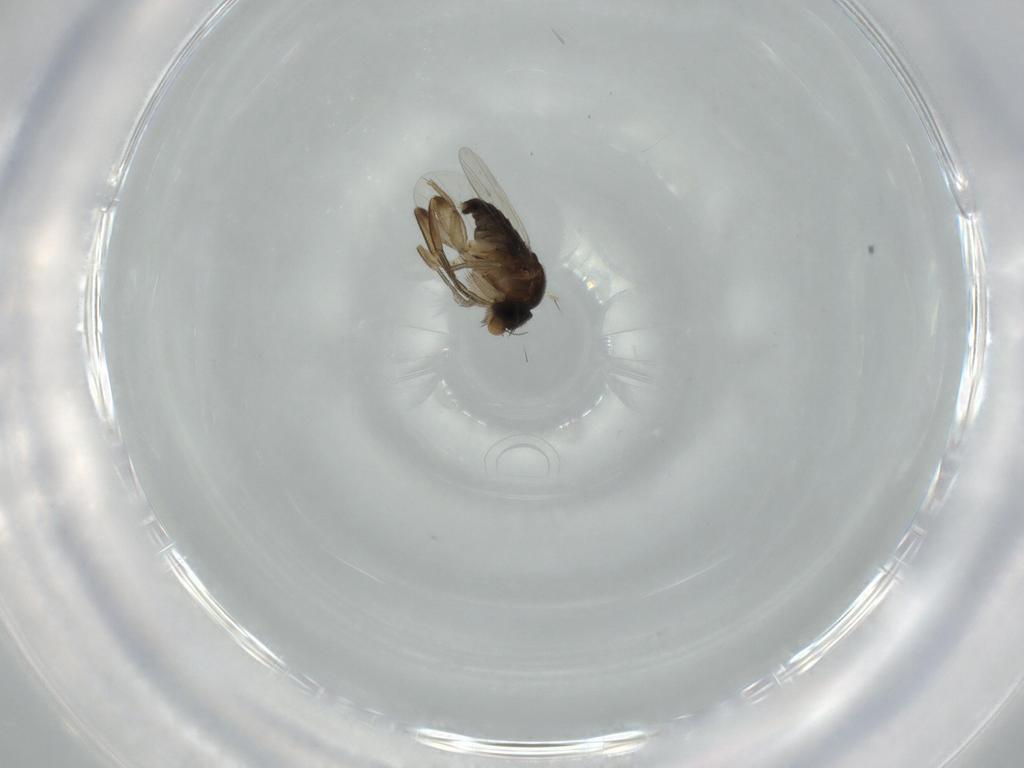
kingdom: Animalia
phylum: Arthropoda
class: Insecta
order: Diptera
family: Phoridae
